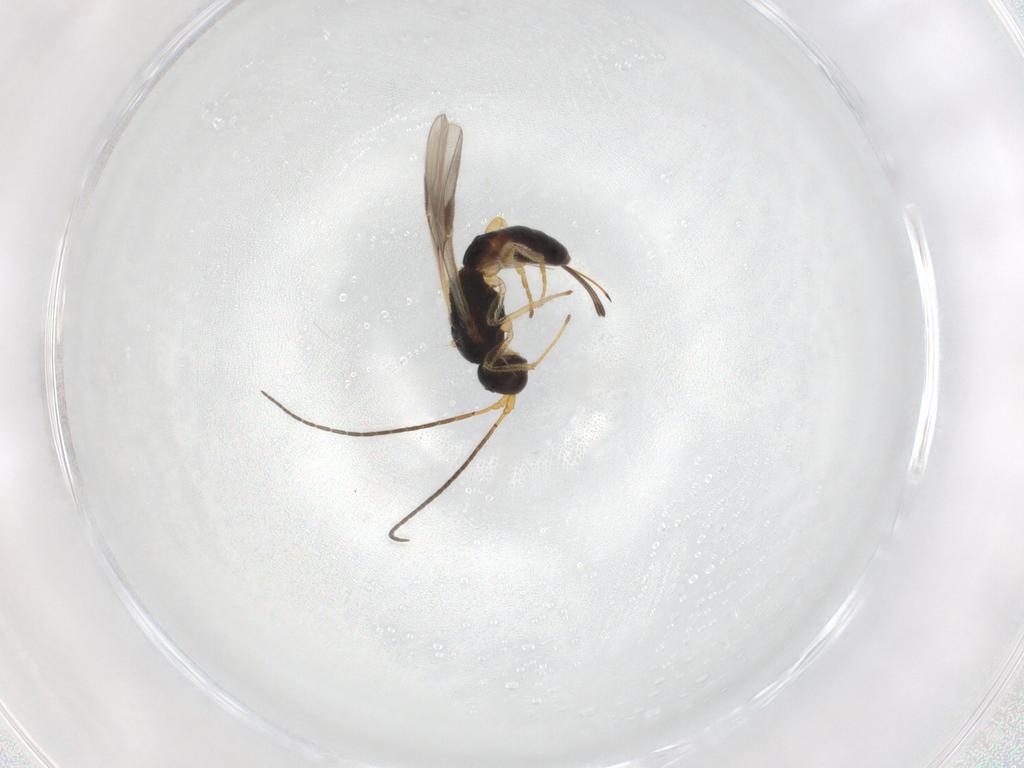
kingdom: Animalia
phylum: Arthropoda
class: Insecta
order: Hymenoptera
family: Braconidae
